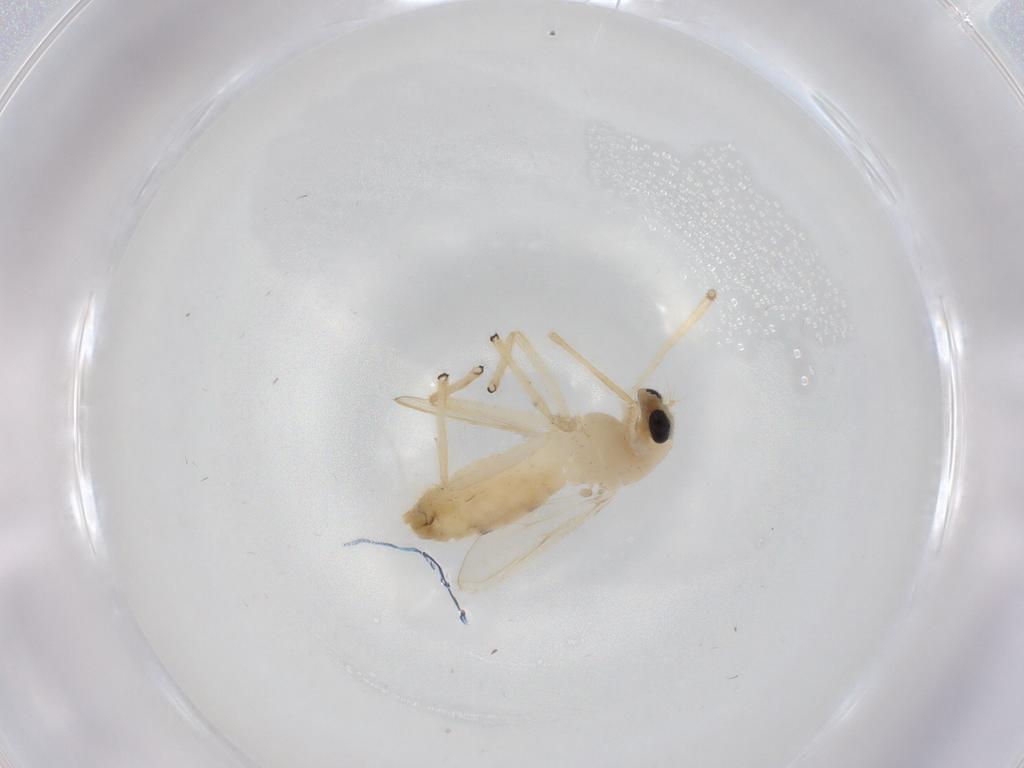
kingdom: Animalia
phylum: Arthropoda
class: Insecta
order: Diptera
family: Chironomidae
